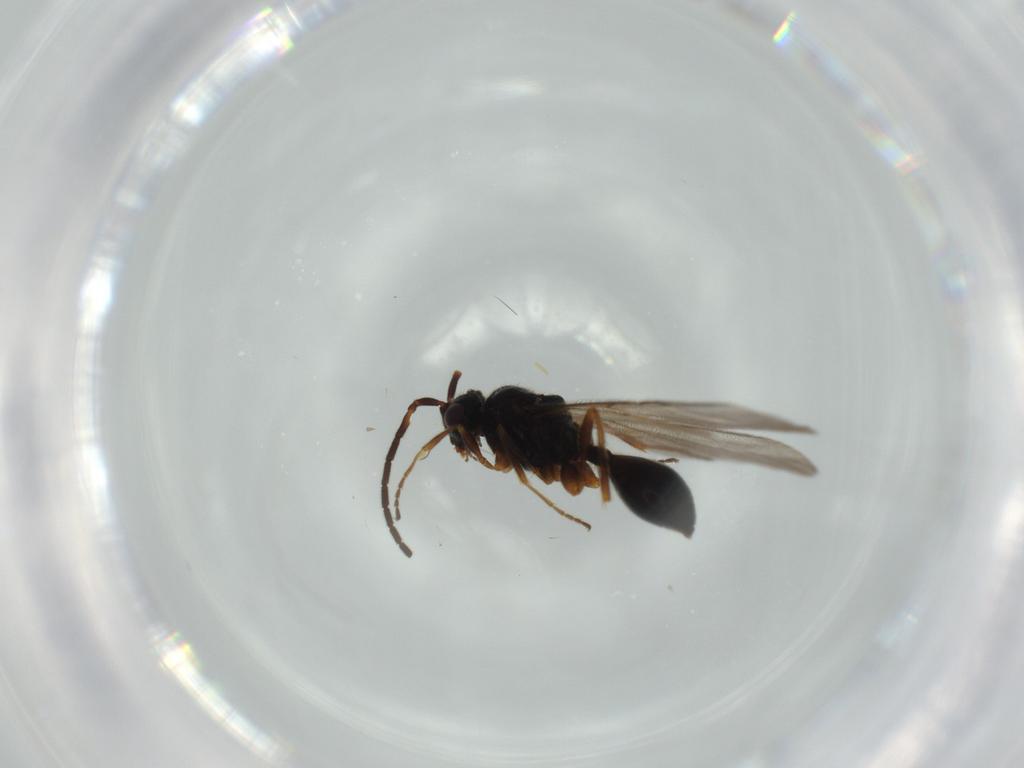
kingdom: Animalia
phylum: Arthropoda
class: Insecta
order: Hymenoptera
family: Diapriidae
